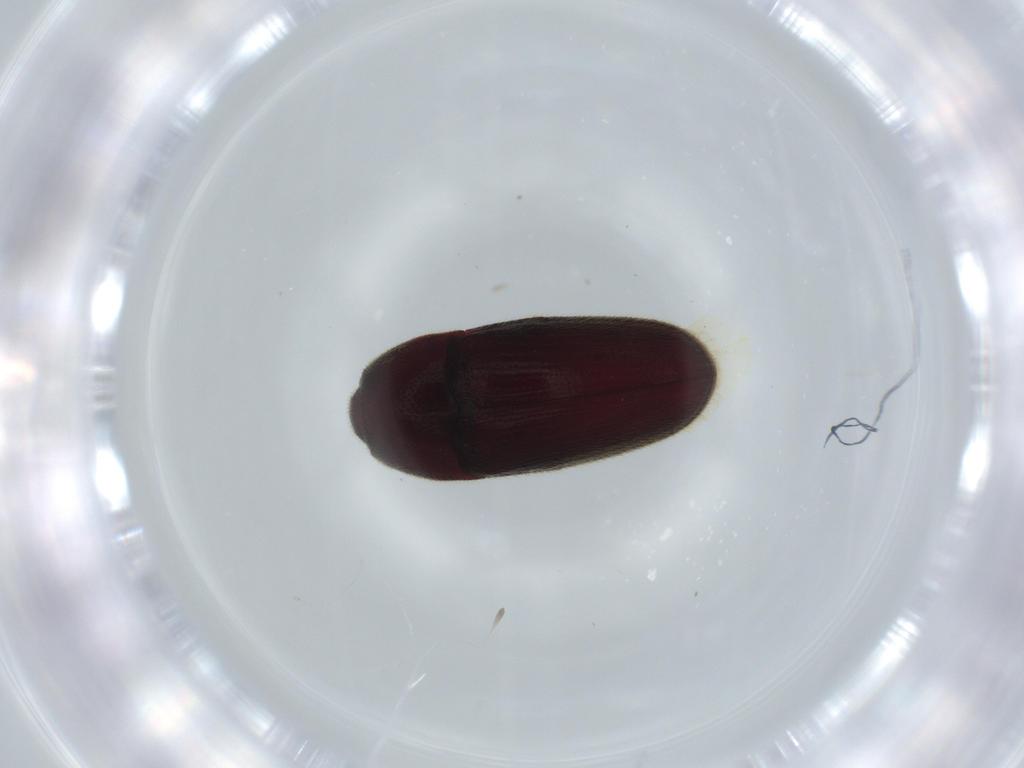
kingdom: Animalia
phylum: Arthropoda
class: Insecta
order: Coleoptera
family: Throscidae
